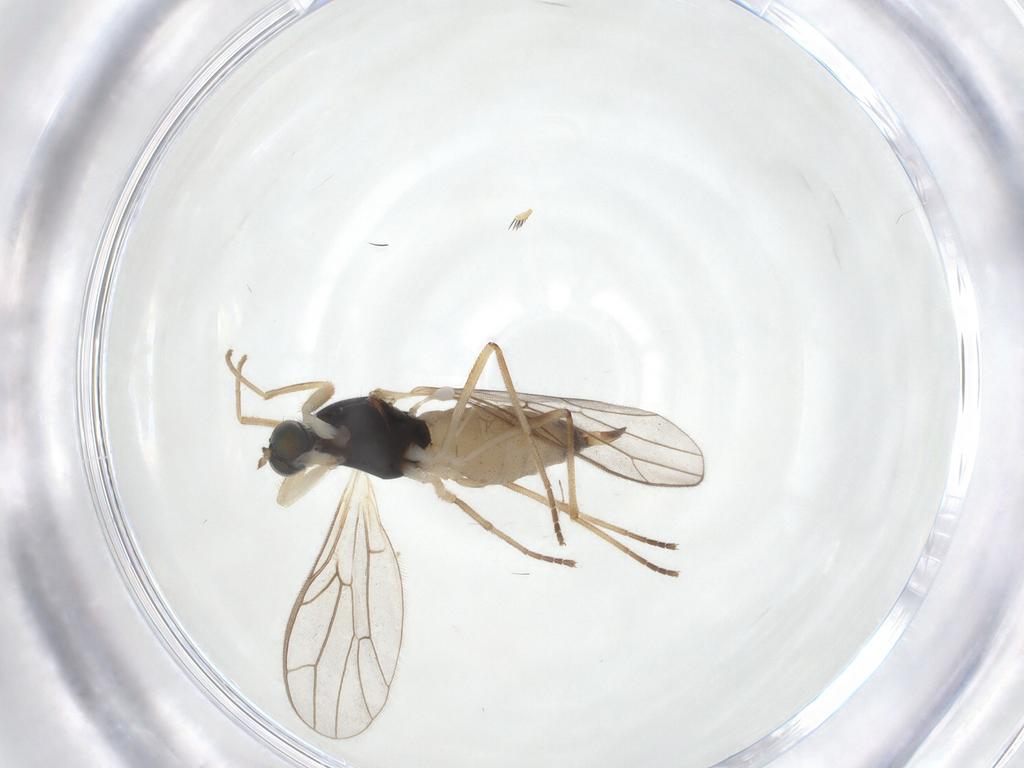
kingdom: Animalia
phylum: Arthropoda
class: Insecta
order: Diptera
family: Empididae
